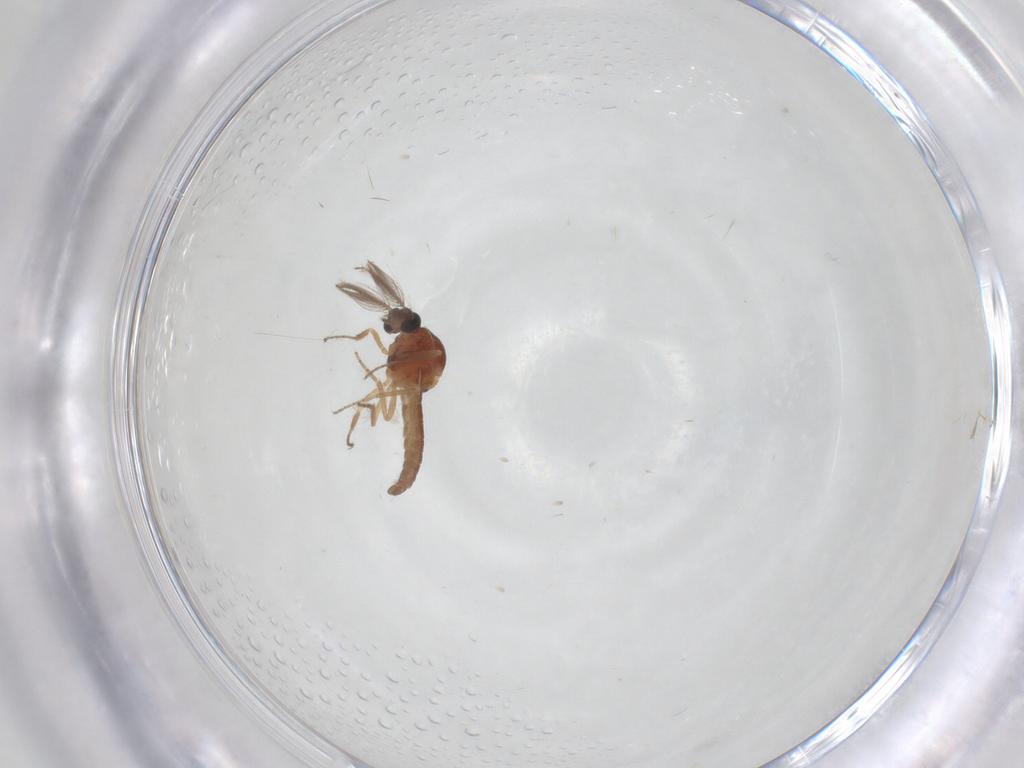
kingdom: Animalia
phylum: Arthropoda
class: Insecta
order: Diptera
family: Ceratopogonidae
